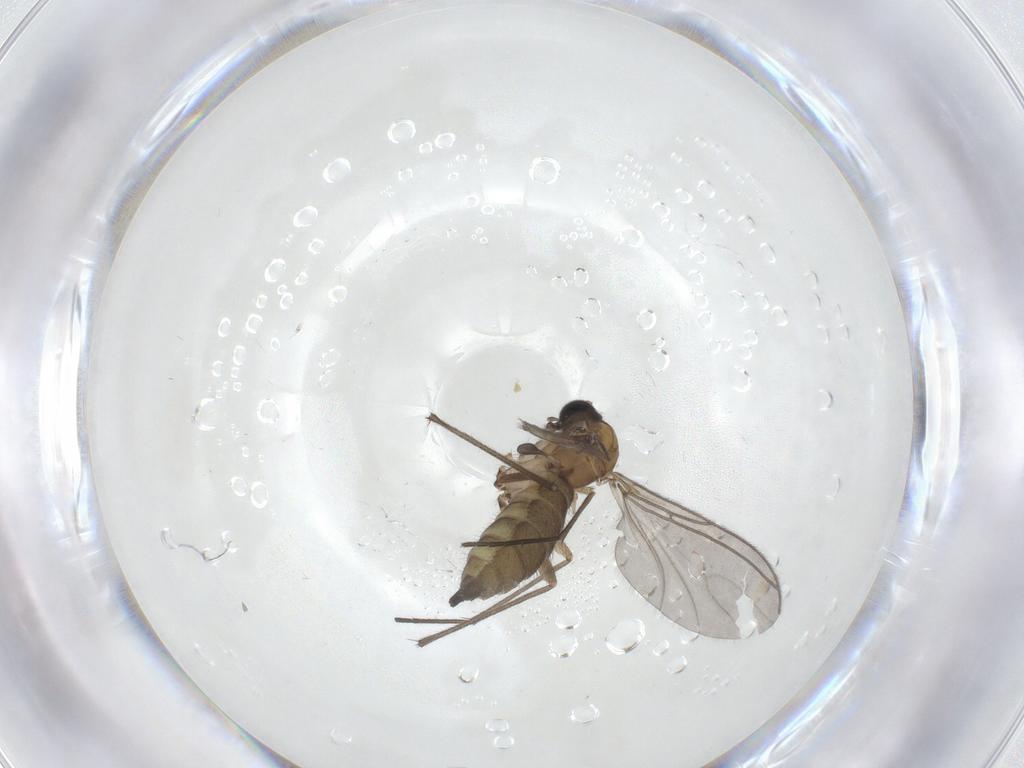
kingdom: Animalia
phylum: Arthropoda
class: Insecta
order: Diptera
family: Sciaridae
